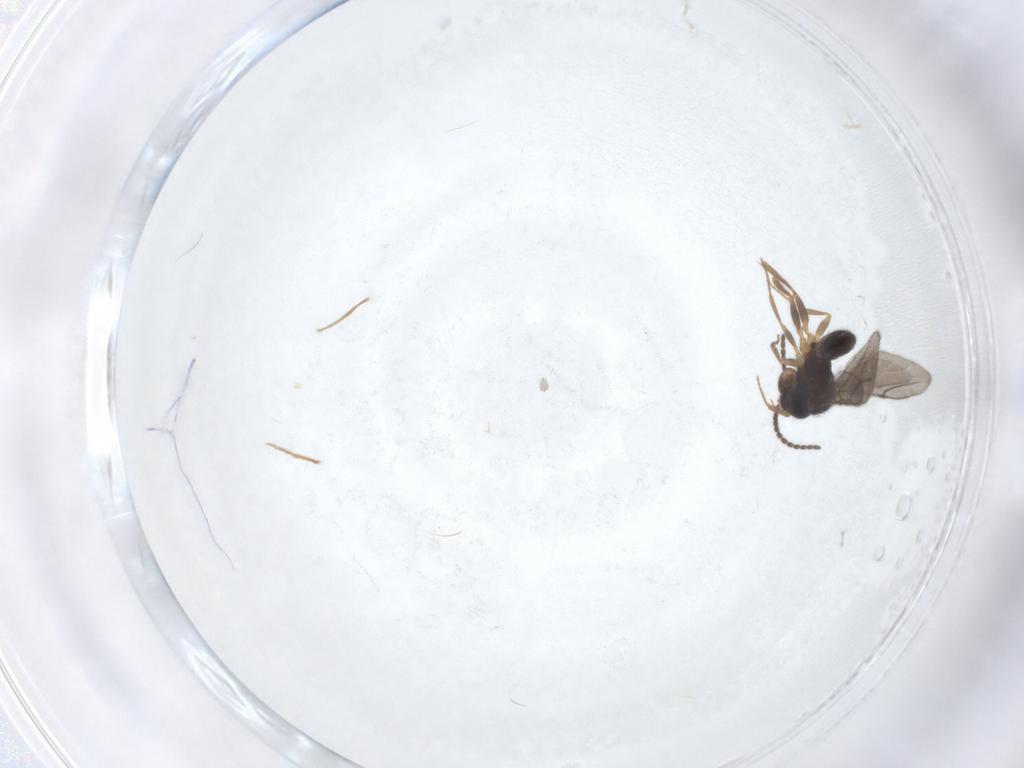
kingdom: Animalia
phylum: Arthropoda
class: Insecta
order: Hymenoptera
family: Bethylidae
